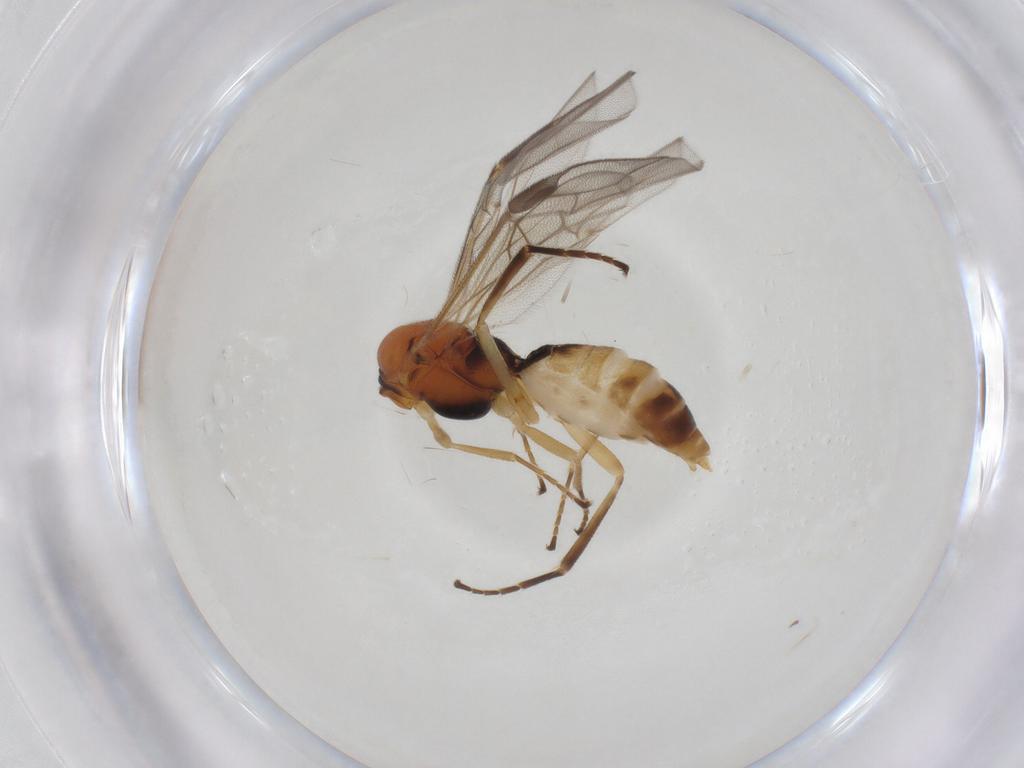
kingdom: Animalia
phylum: Arthropoda
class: Insecta
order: Hymenoptera
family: Braconidae
